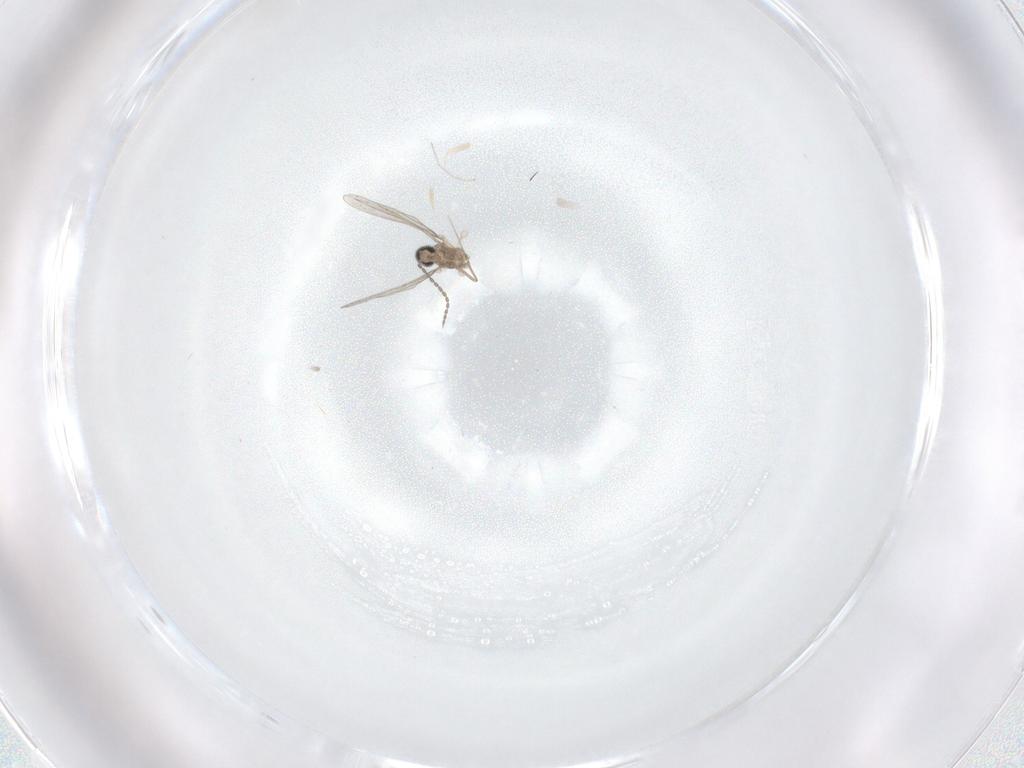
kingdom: Animalia
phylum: Arthropoda
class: Insecta
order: Diptera
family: Cecidomyiidae
